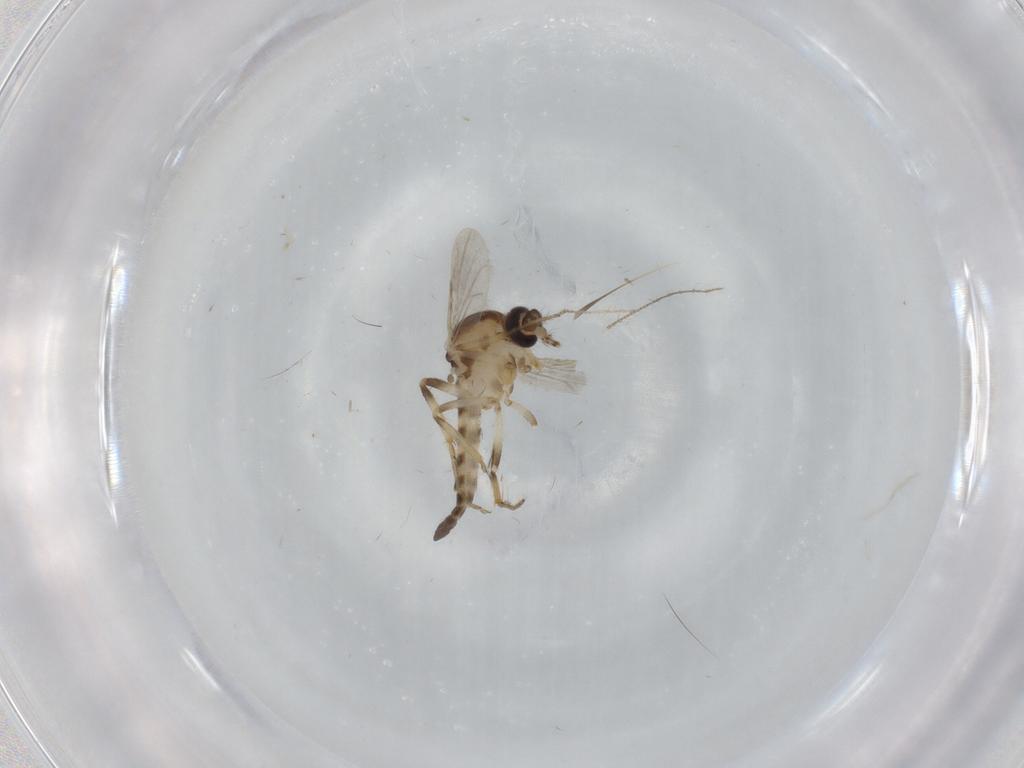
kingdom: Animalia
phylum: Arthropoda
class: Insecta
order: Diptera
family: Ceratopogonidae
